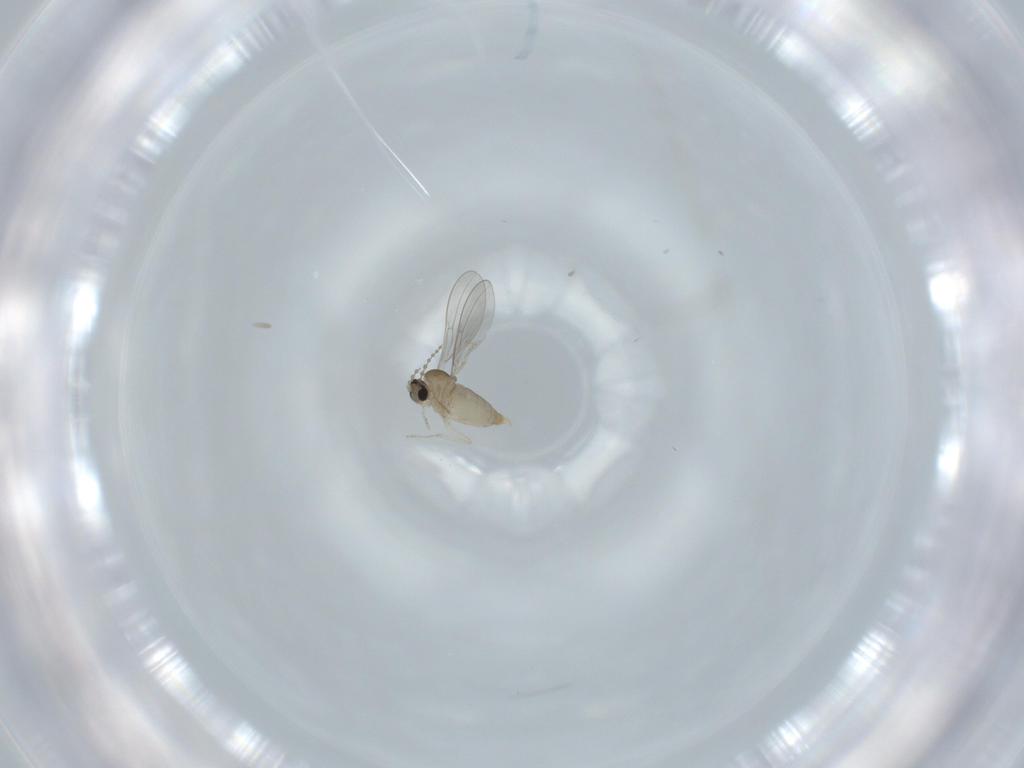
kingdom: Animalia
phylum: Arthropoda
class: Insecta
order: Diptera
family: Cecidomyiidae
